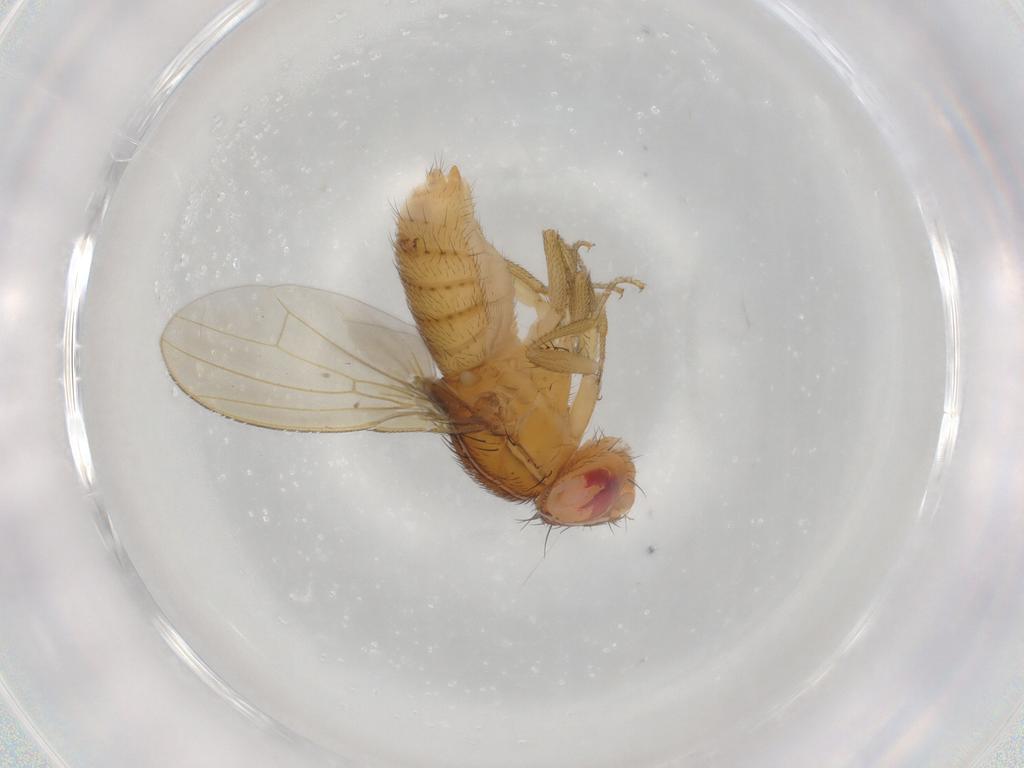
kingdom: Animalia
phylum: Arthropoda
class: Insecta
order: Diptera
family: Drosophilidae
